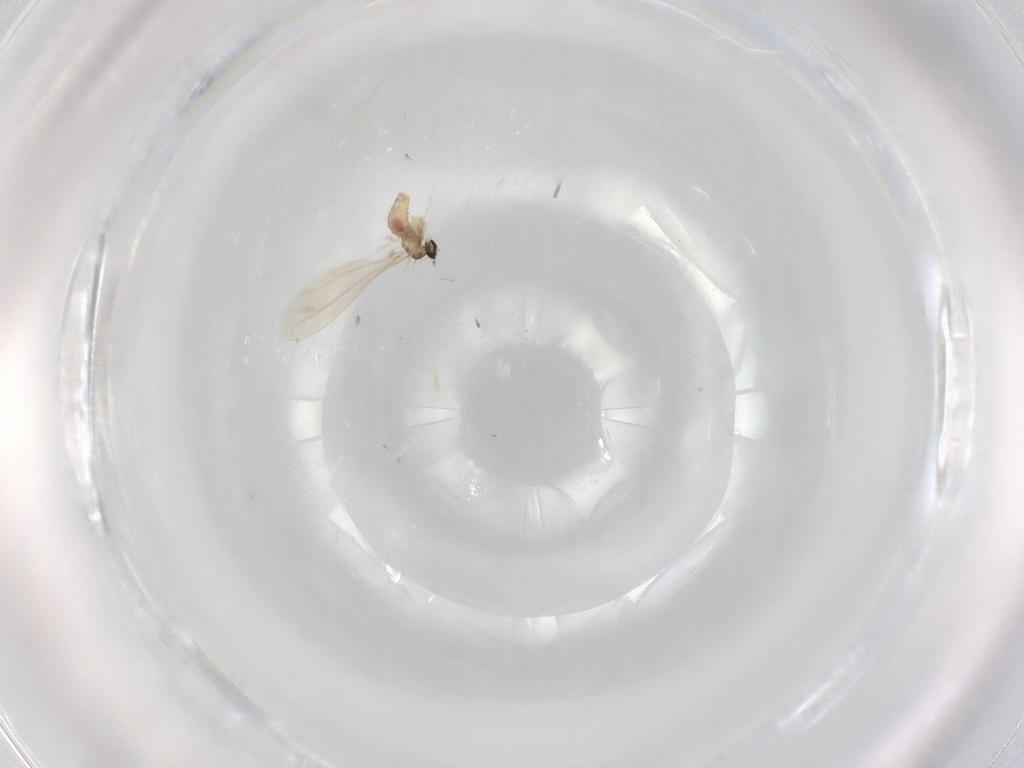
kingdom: Animalia
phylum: Arthropoda
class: Insecta
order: Diptera
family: Cecidomyiidae
